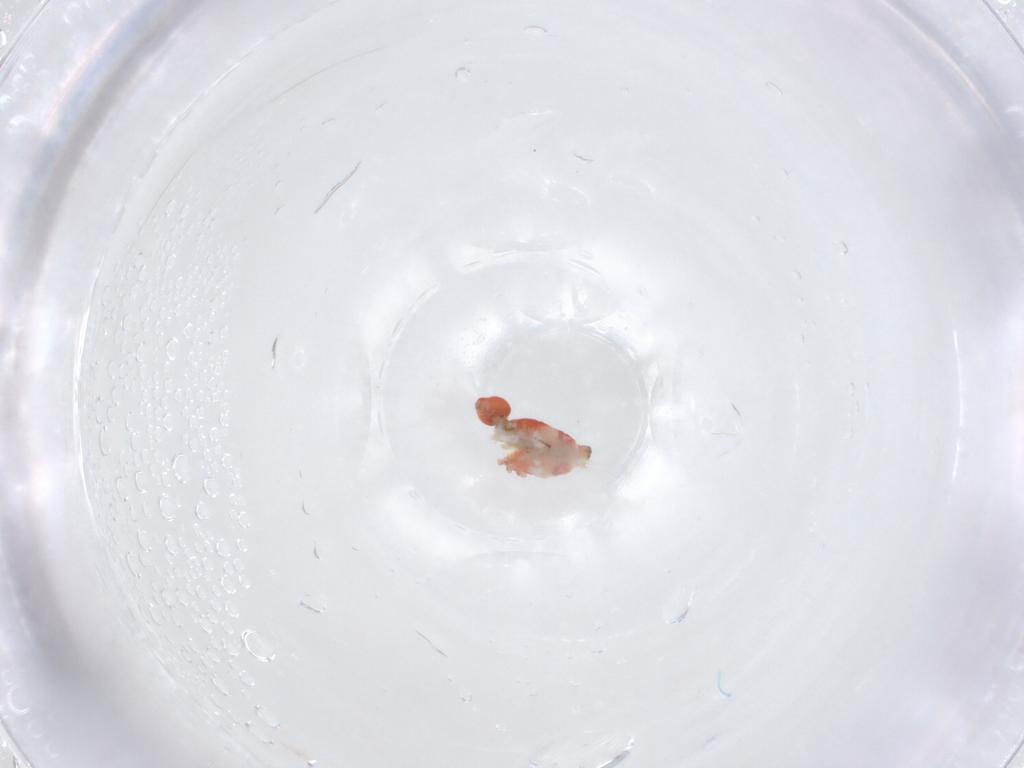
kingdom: Animalia
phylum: Arthropoda
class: Collembola
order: Symphypleona
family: Bourletiellidae
